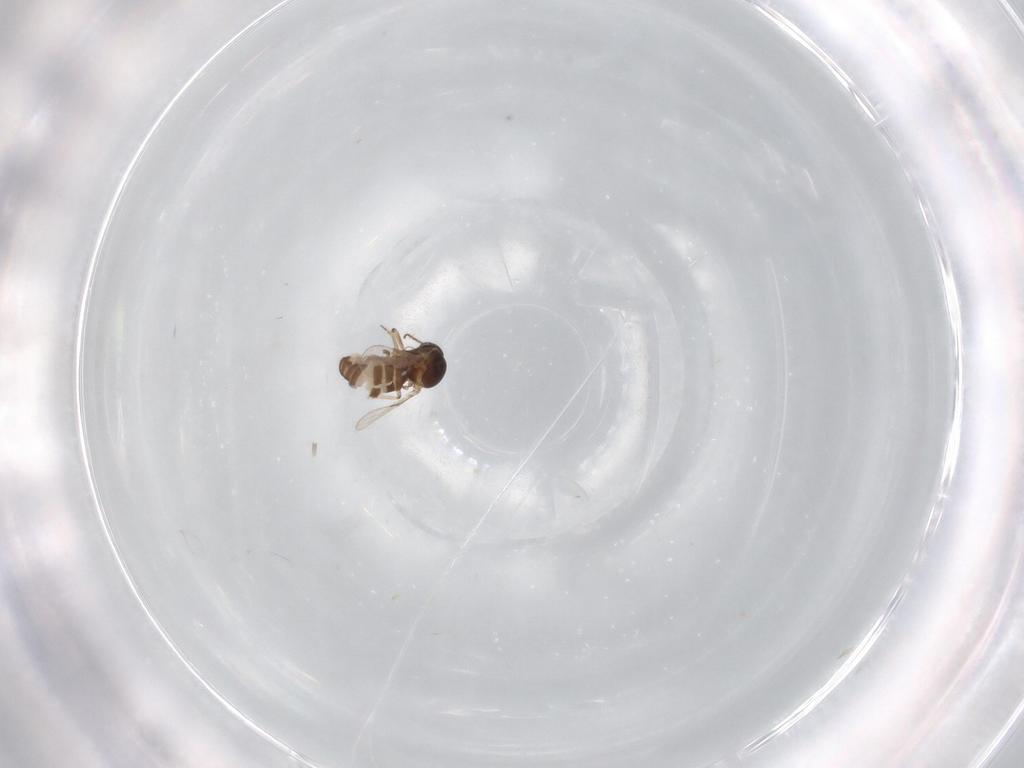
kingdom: Animalia
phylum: Arthropoda
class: Insecta
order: Diptera
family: Ceratopogonidae
